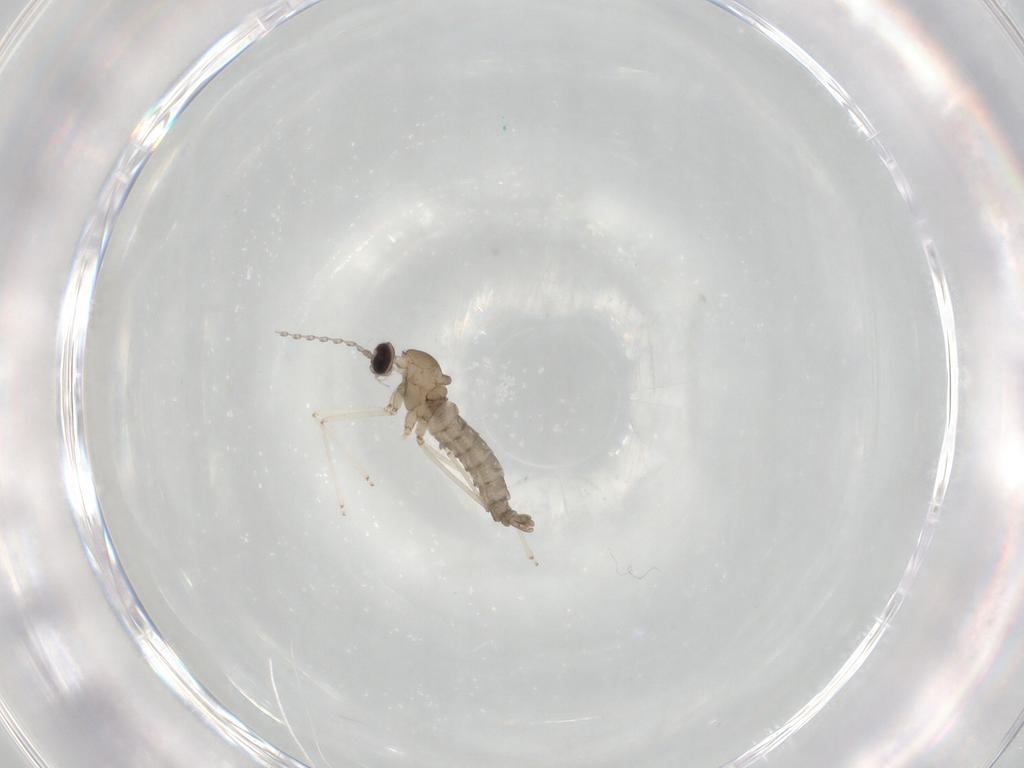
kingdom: Animalia
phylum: Arthropoda
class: Insecta
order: Diptera
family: Cecidomyiidae
